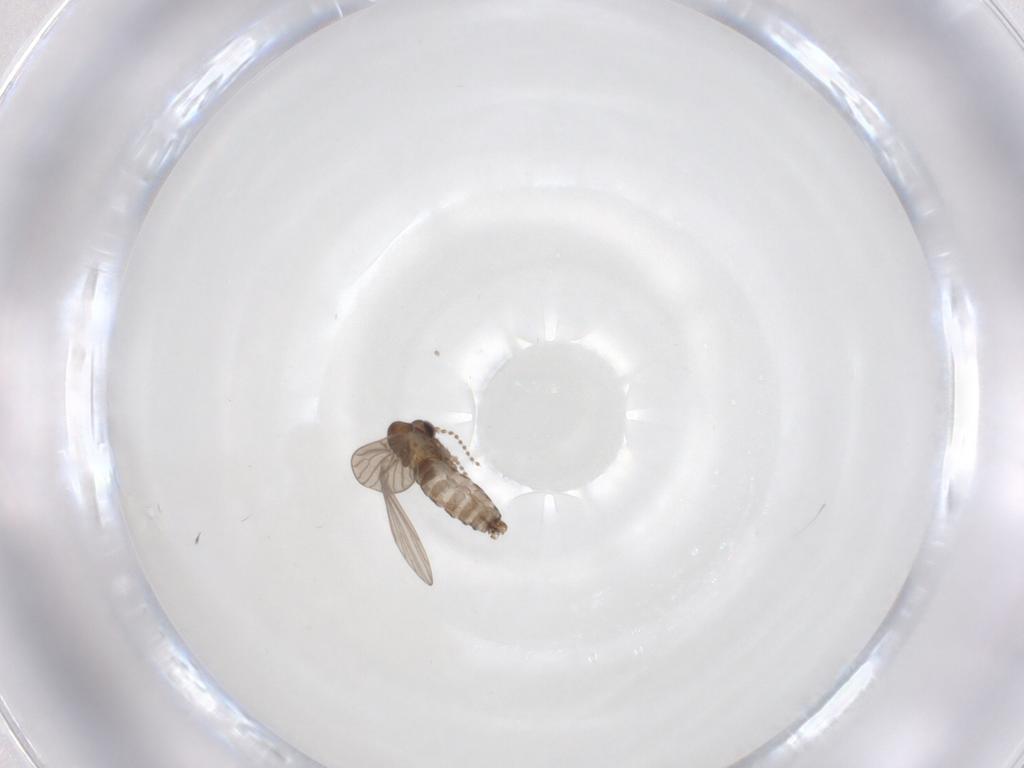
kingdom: Animalia
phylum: Arthropoda
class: Insecta
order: Diptera
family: Psychodidae
